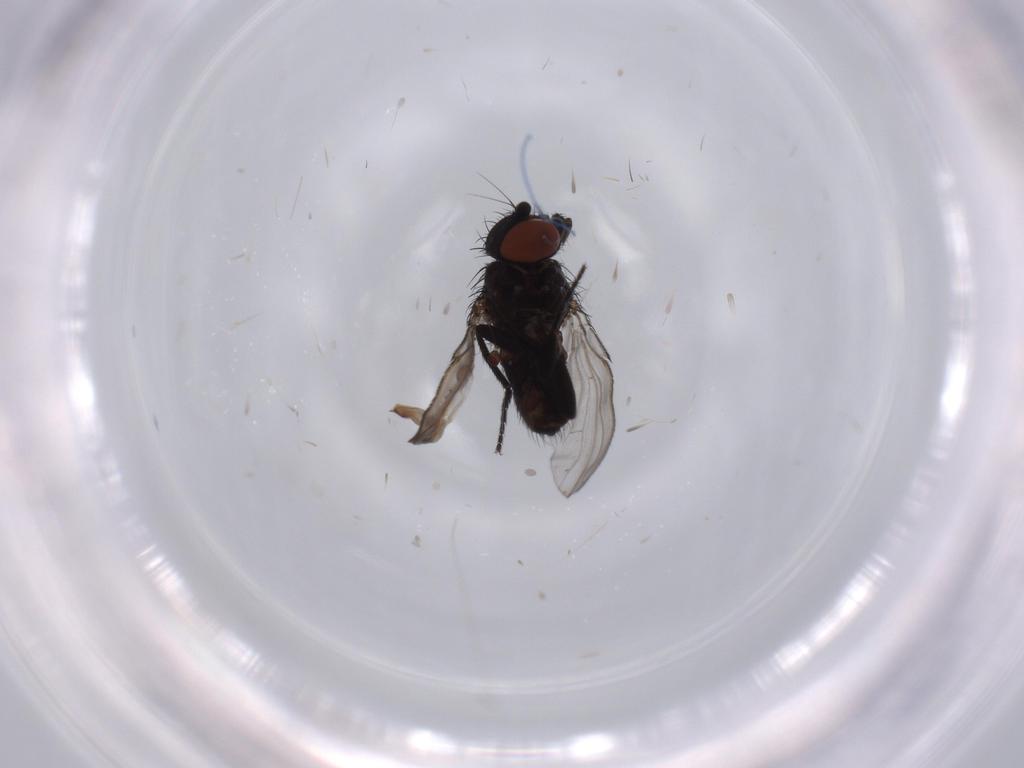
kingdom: Animalia
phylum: Arthropoda
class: Insecta
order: Diptera
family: Milichiidae
